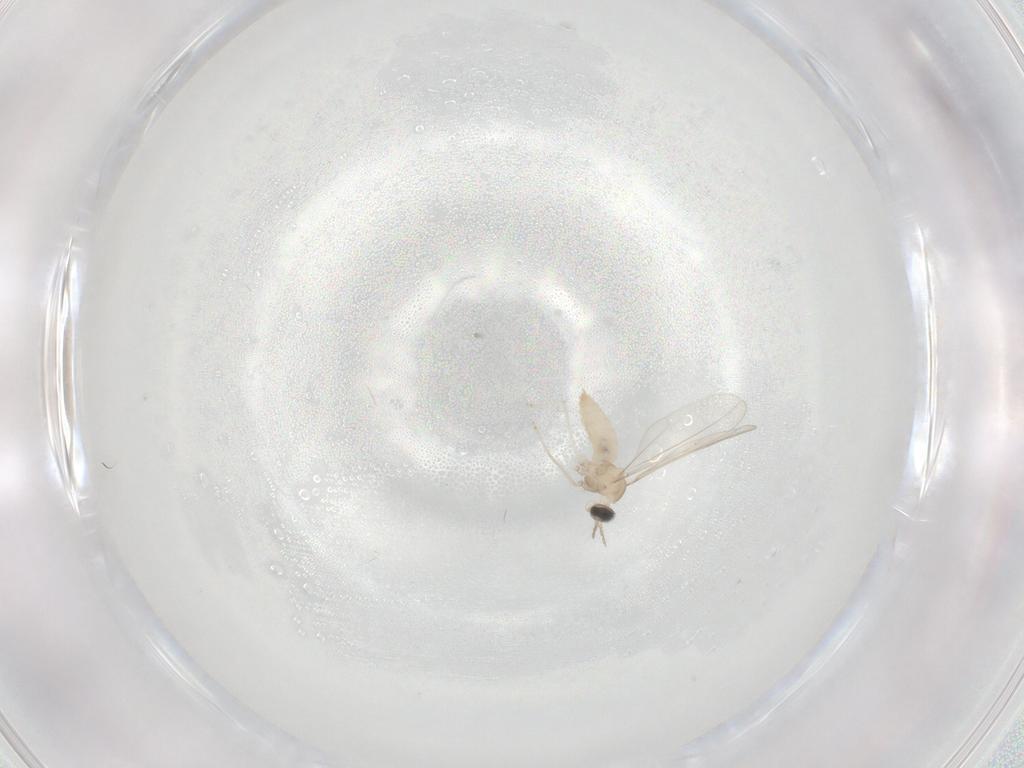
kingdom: Animalia
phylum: Arthropoda
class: Insecta
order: Diptera
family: Cecidomyiidae
